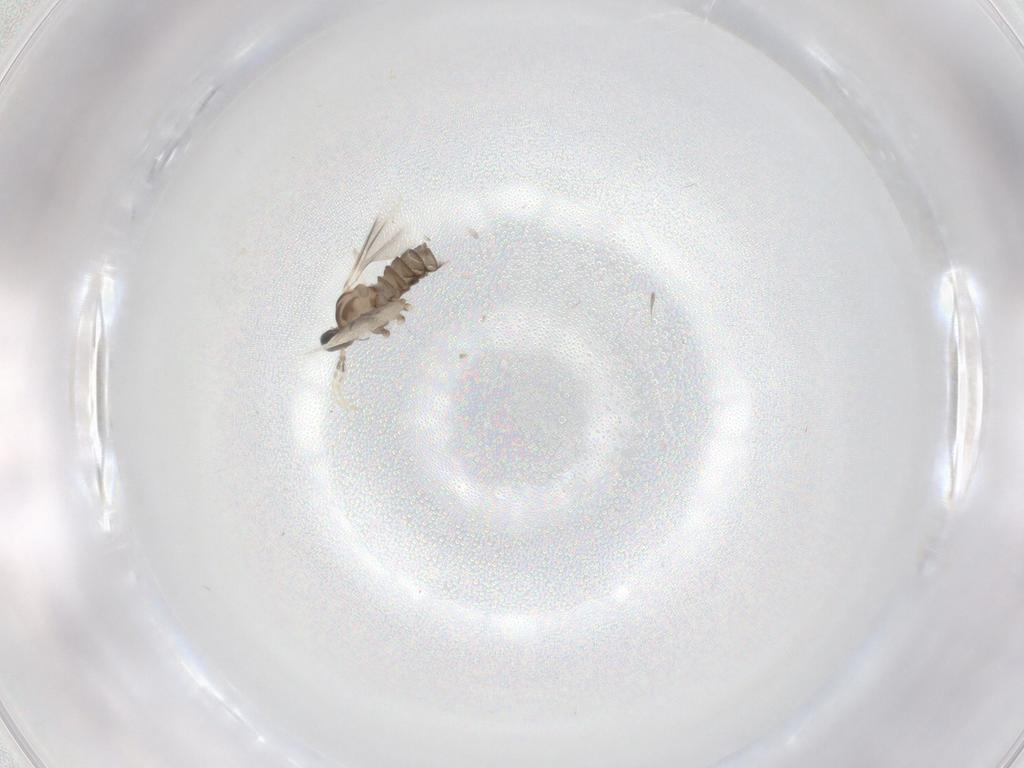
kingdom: Animalia
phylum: Arthropoda
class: Insecta
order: Diptera
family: Cecidomyiidae
